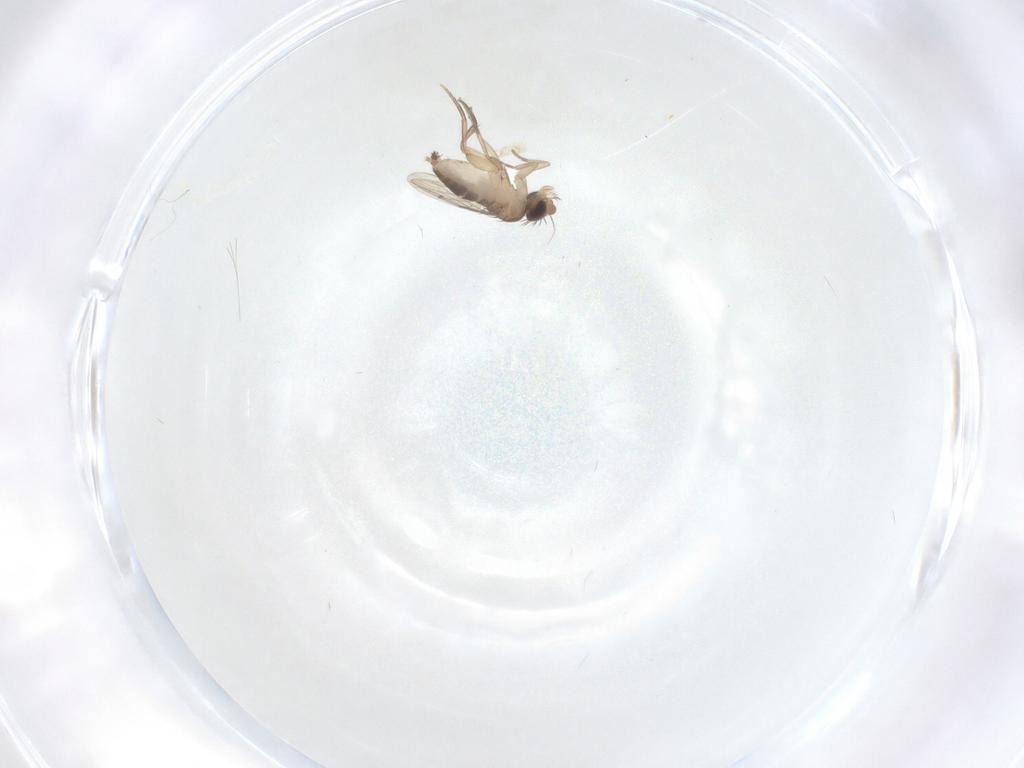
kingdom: Animalia
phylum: Arthropoda
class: Insecta
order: Diptera
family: Phoridae
